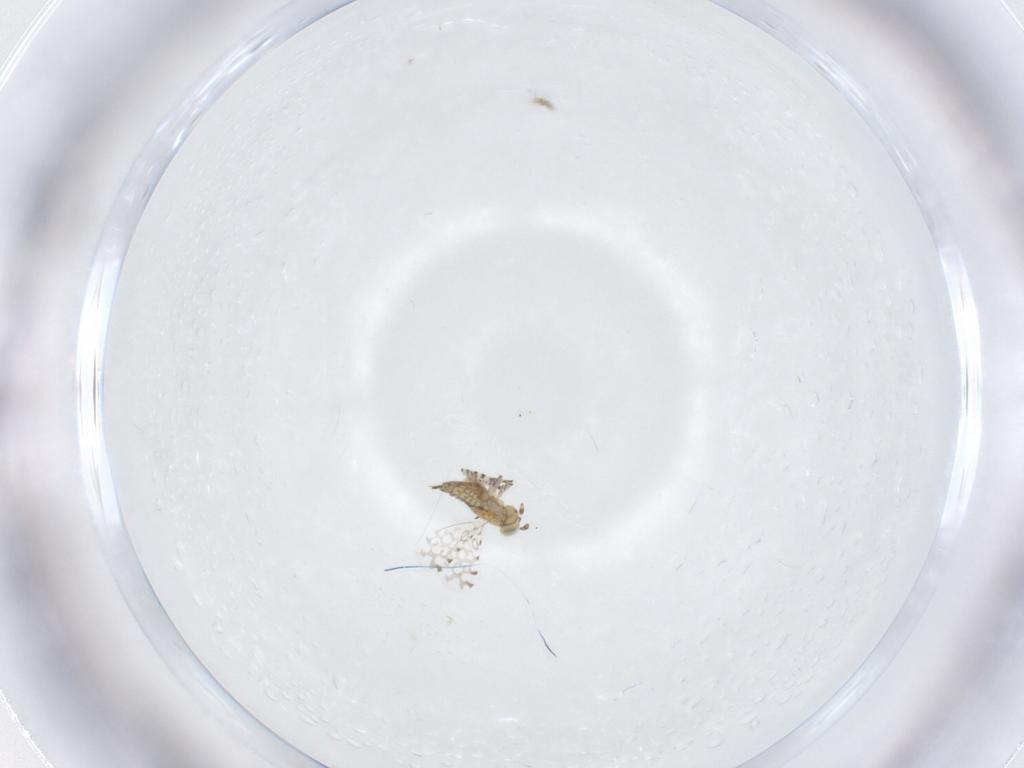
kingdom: Animalia
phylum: Arthropoda
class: Insecta
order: Hymenoptera
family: Aphelinidae
